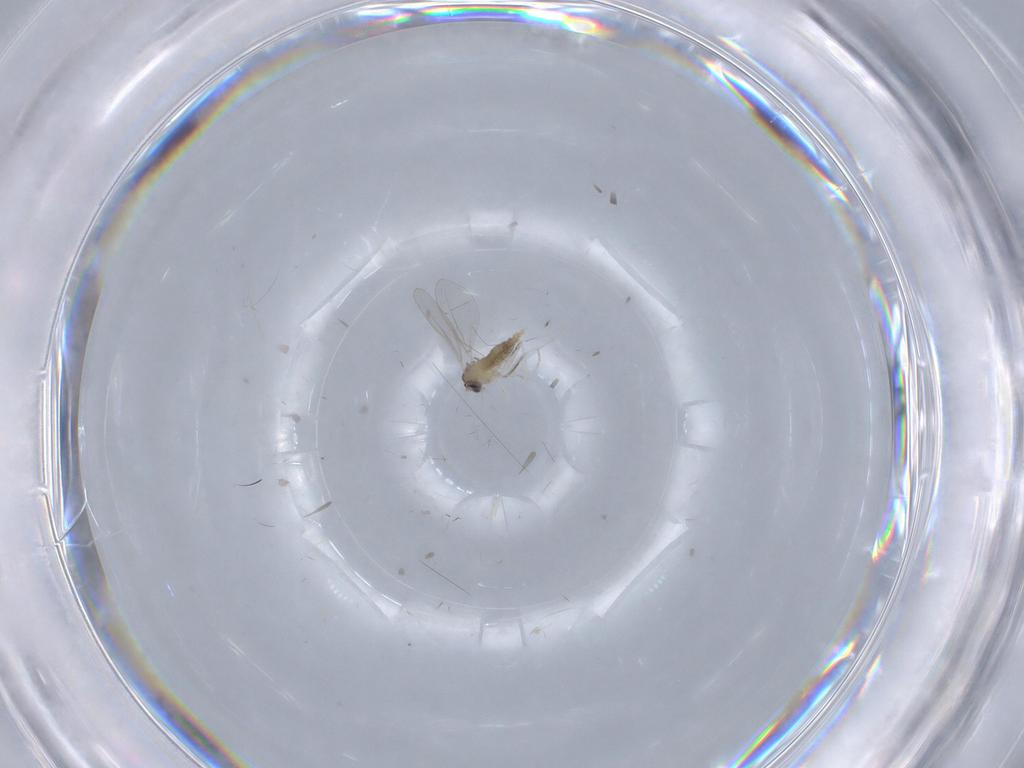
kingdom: Animalia
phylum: Arthropoda
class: Insecta
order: Diptera
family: Cecidomyiidae
